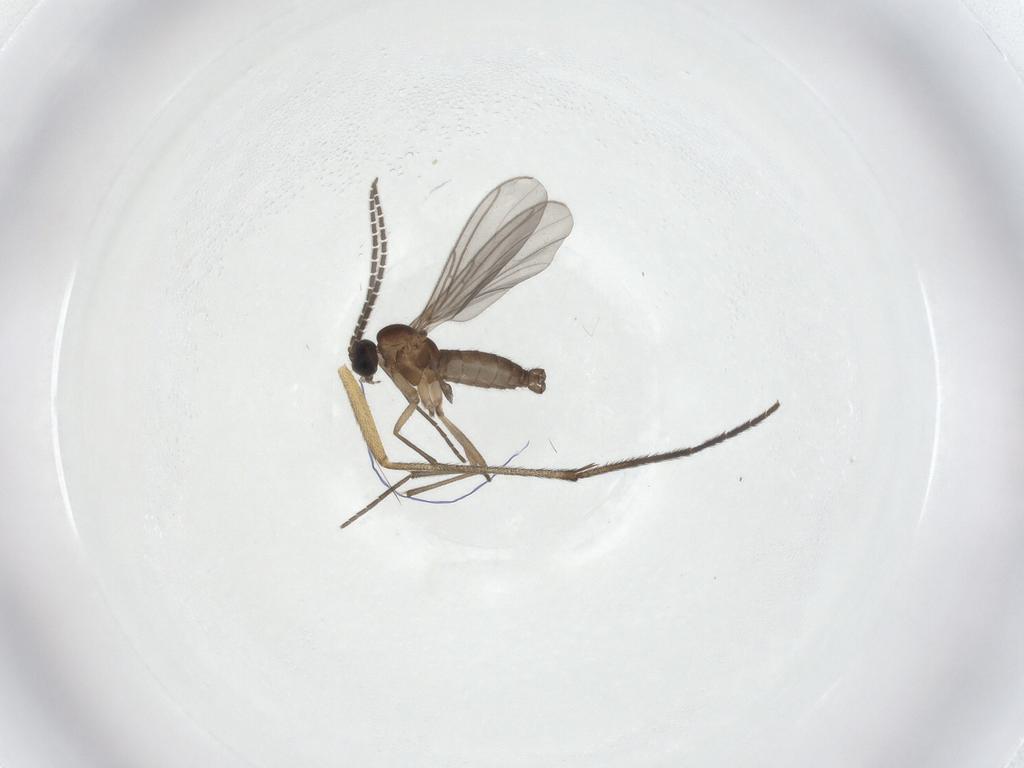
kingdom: Animalia
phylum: Arthropoda
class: Insecta
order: Diptera
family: Sciaridae
